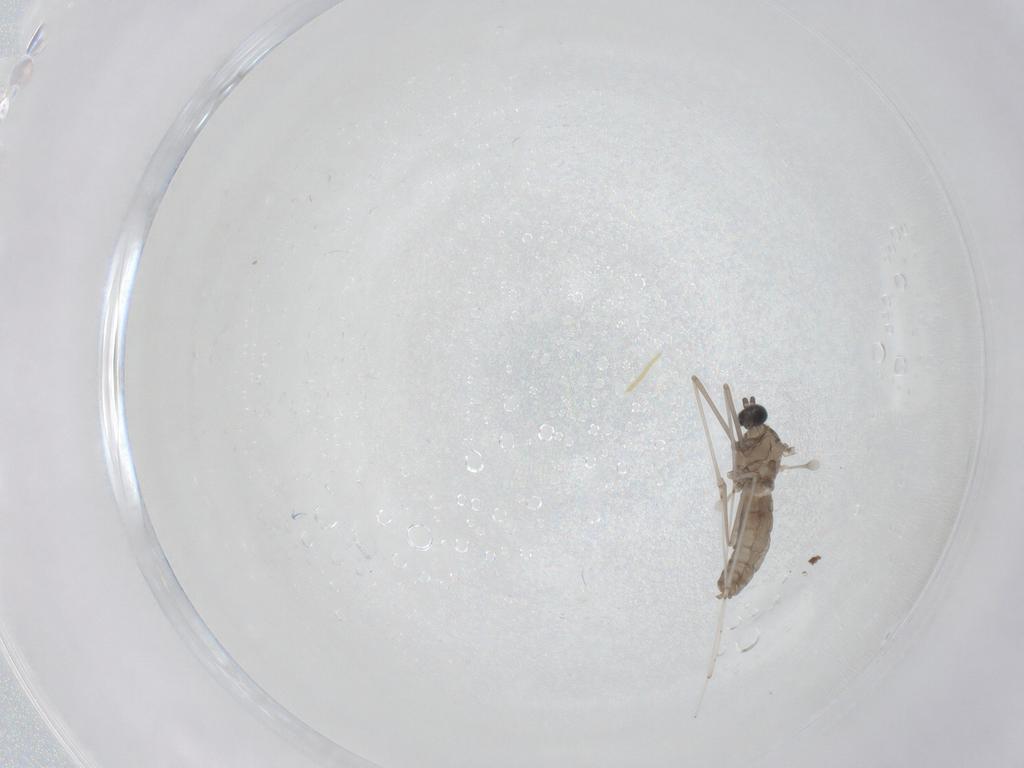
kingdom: Animalia
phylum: Arthropoda
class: Insecta
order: Diptera
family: Chironomidae
